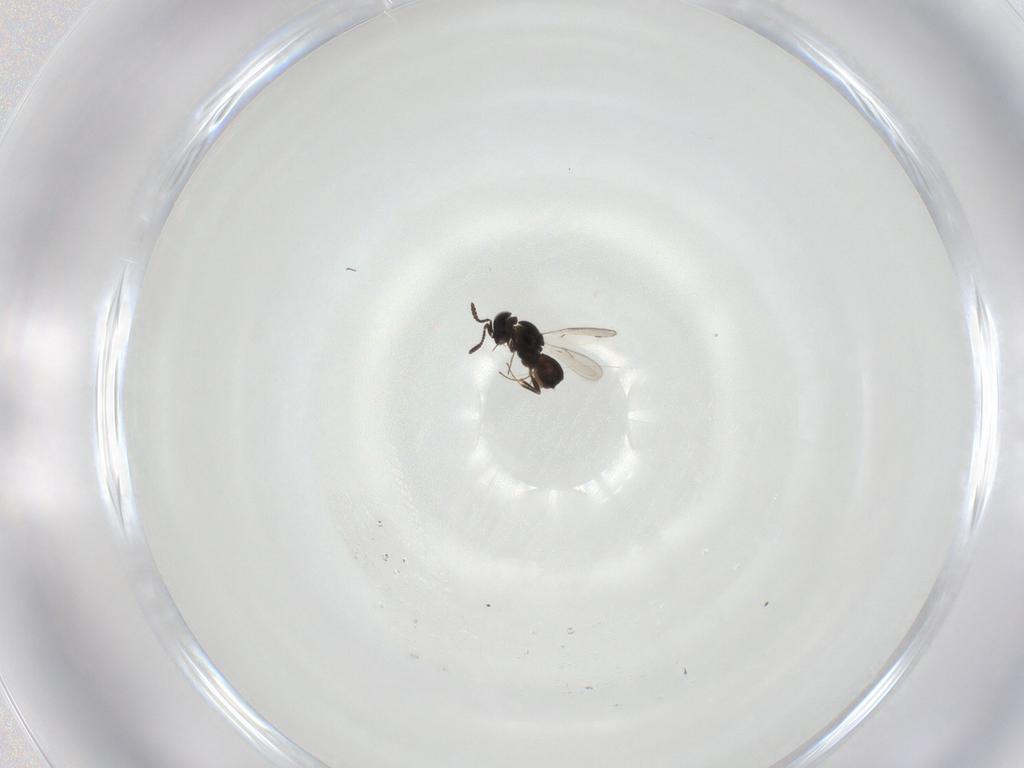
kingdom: Animalia
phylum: Arthropoda
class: Insecta
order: Hymenoptera
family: Scelionidae
